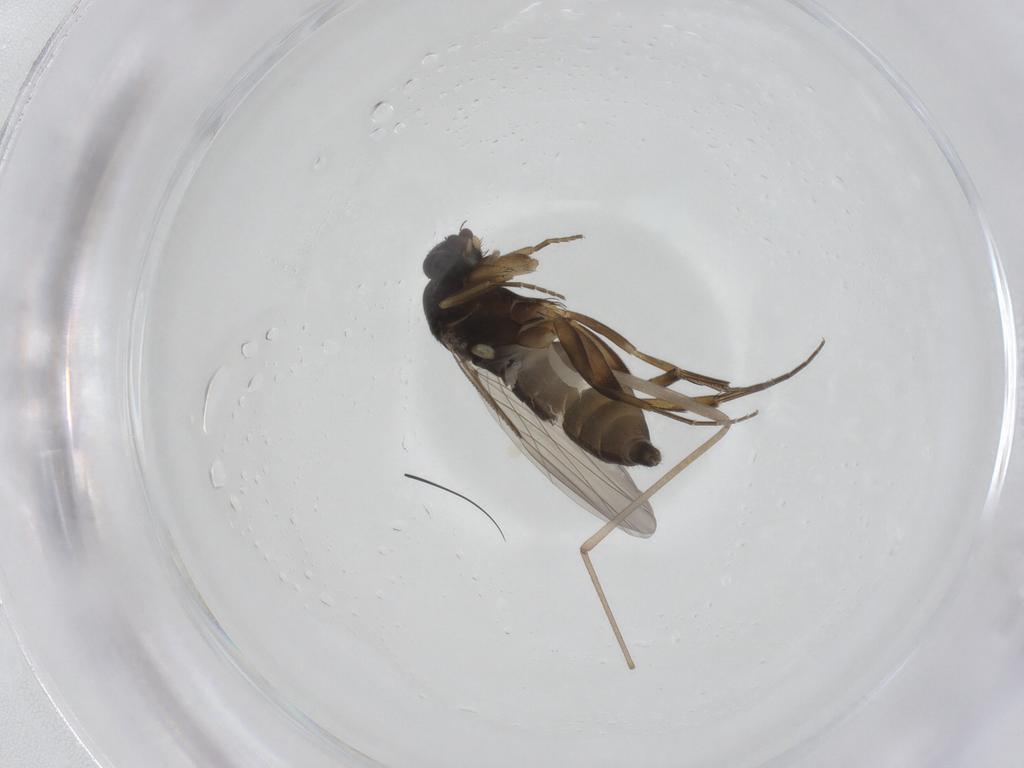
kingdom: Animalia
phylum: Arthropoda
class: Insecta
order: Diptera
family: Phoridae
